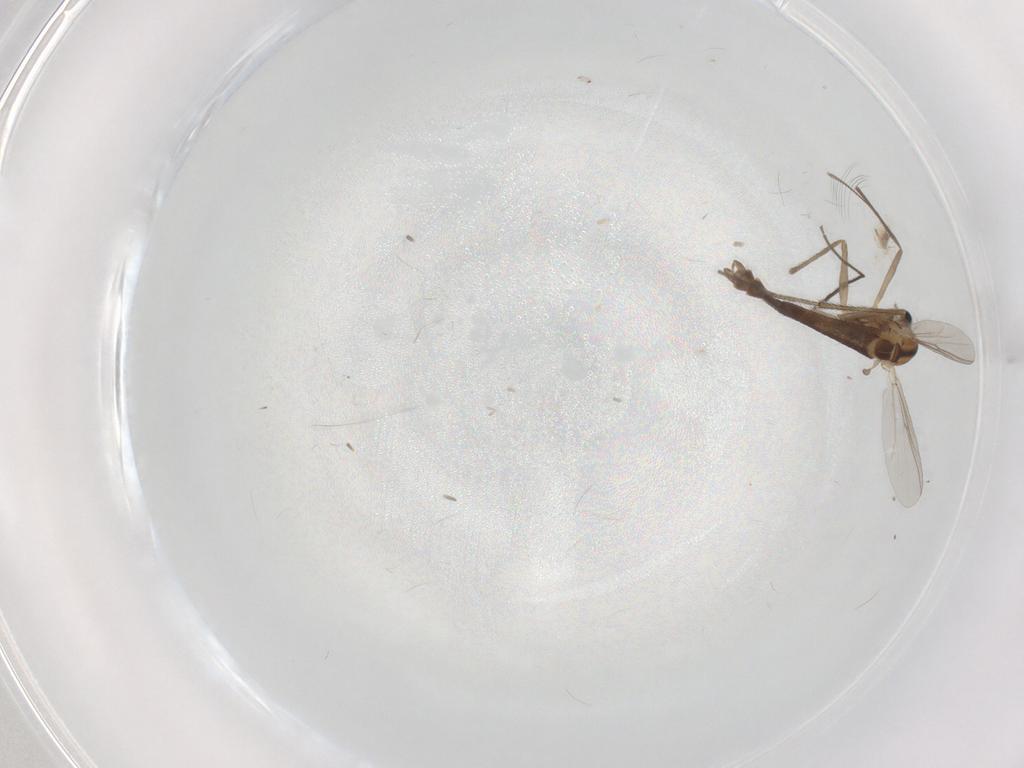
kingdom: Animalia
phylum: Arthropoda
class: Insecta
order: Diptera
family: Chironomidae
